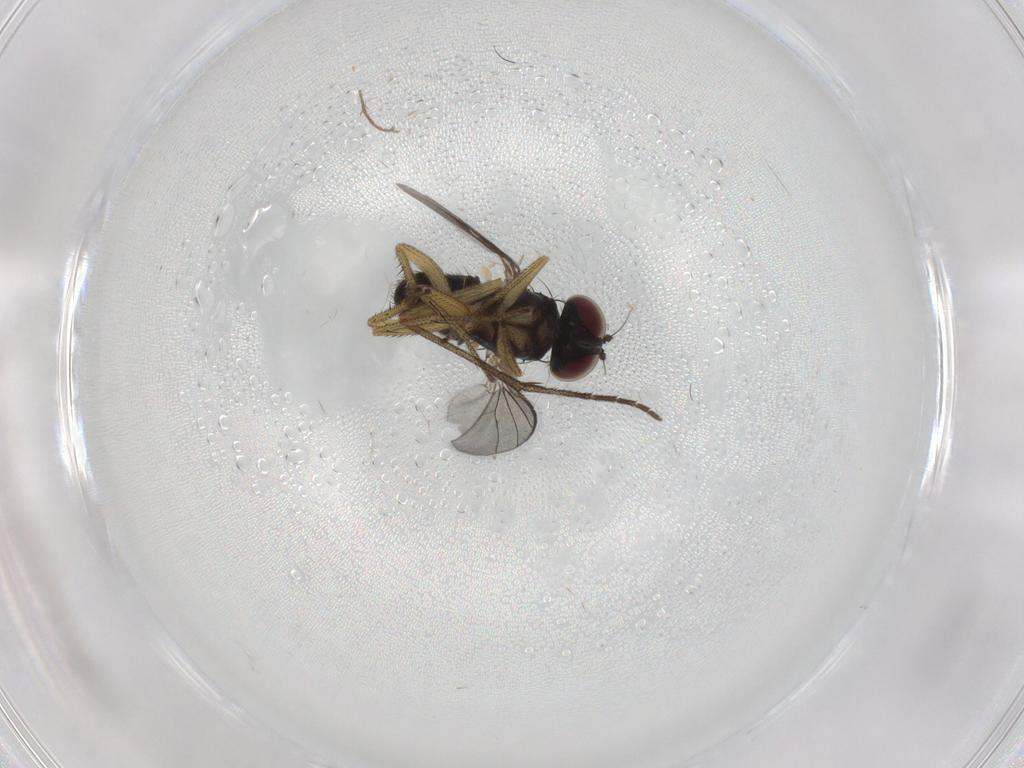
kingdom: Animalia
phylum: Arthropoda
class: Insecta
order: Diptera
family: Sciaridae
